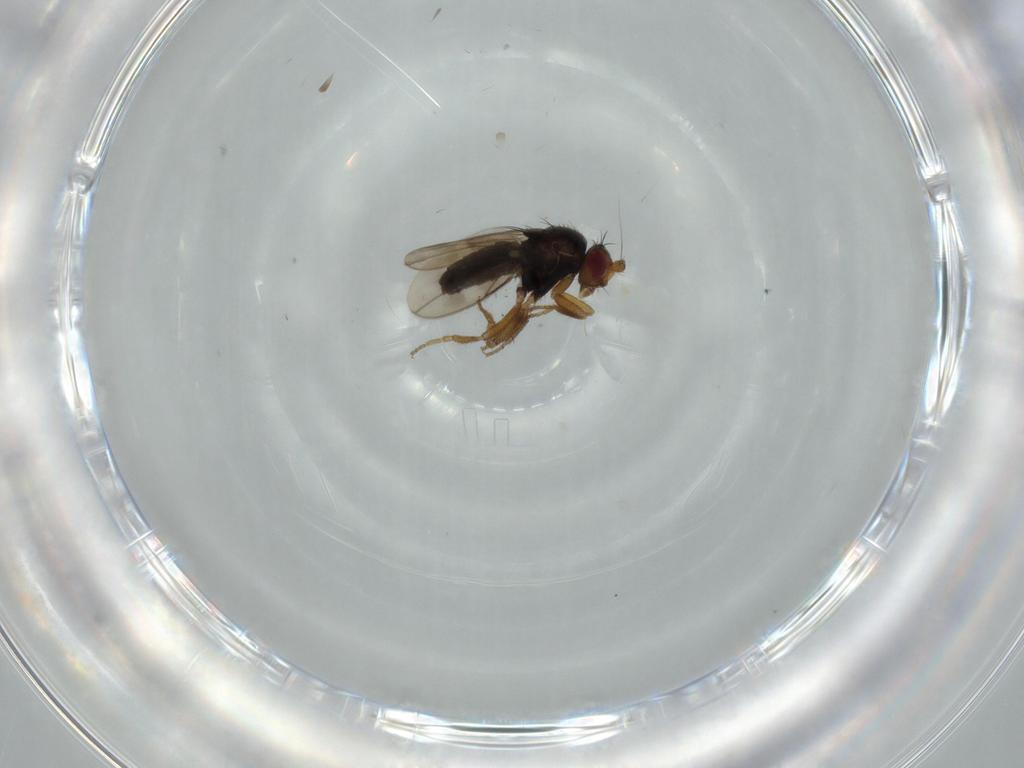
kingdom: Animalia
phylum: Arthropoda
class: Insecta
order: Diptera
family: Sphaeroceridae
